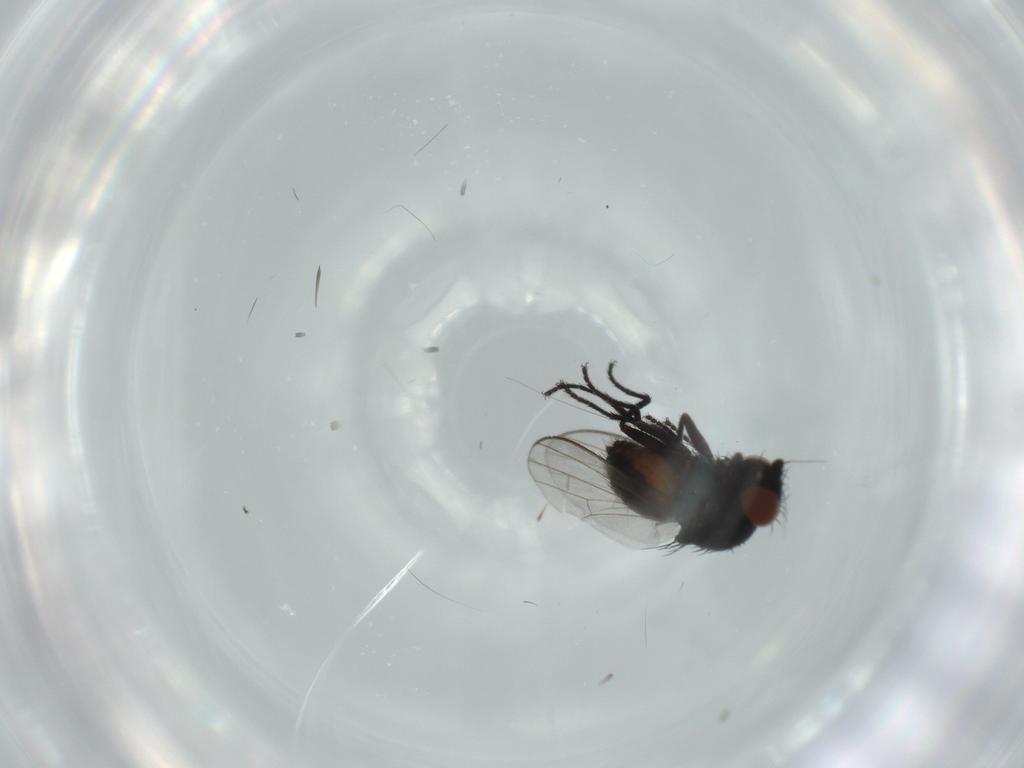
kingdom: Animalia
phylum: Arthropoda
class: Insecta
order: Diptera
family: Milichiidae
